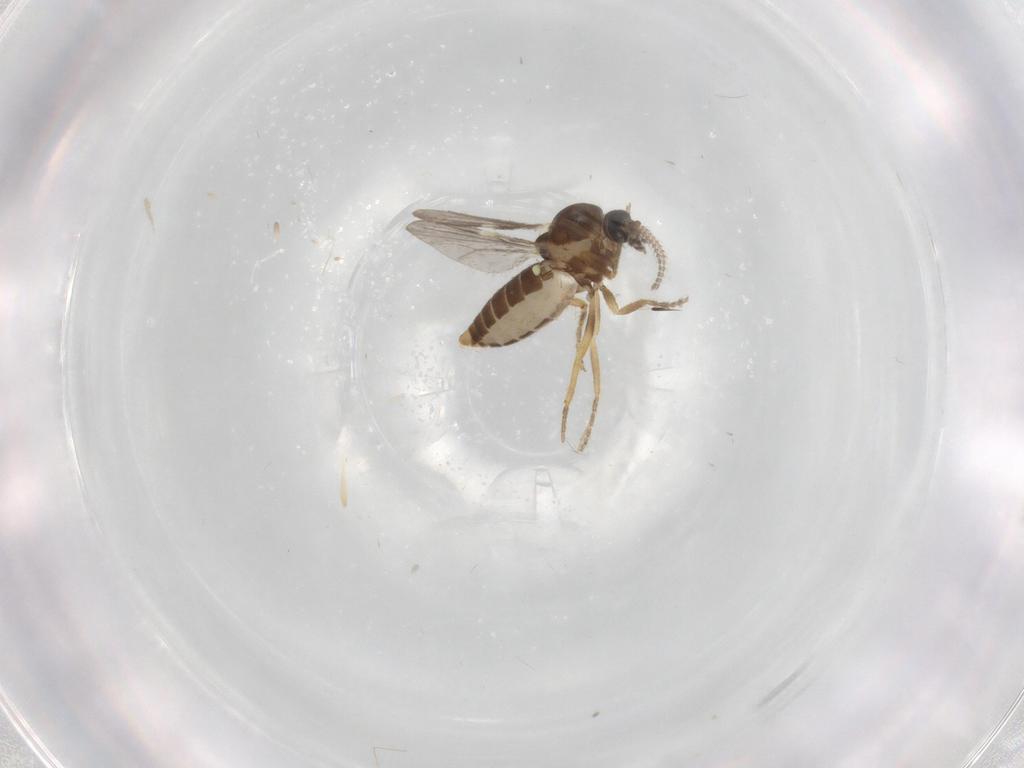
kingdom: Animalia
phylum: Arthropoda
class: Insecta
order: Diptera
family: Ceratopogonidae
